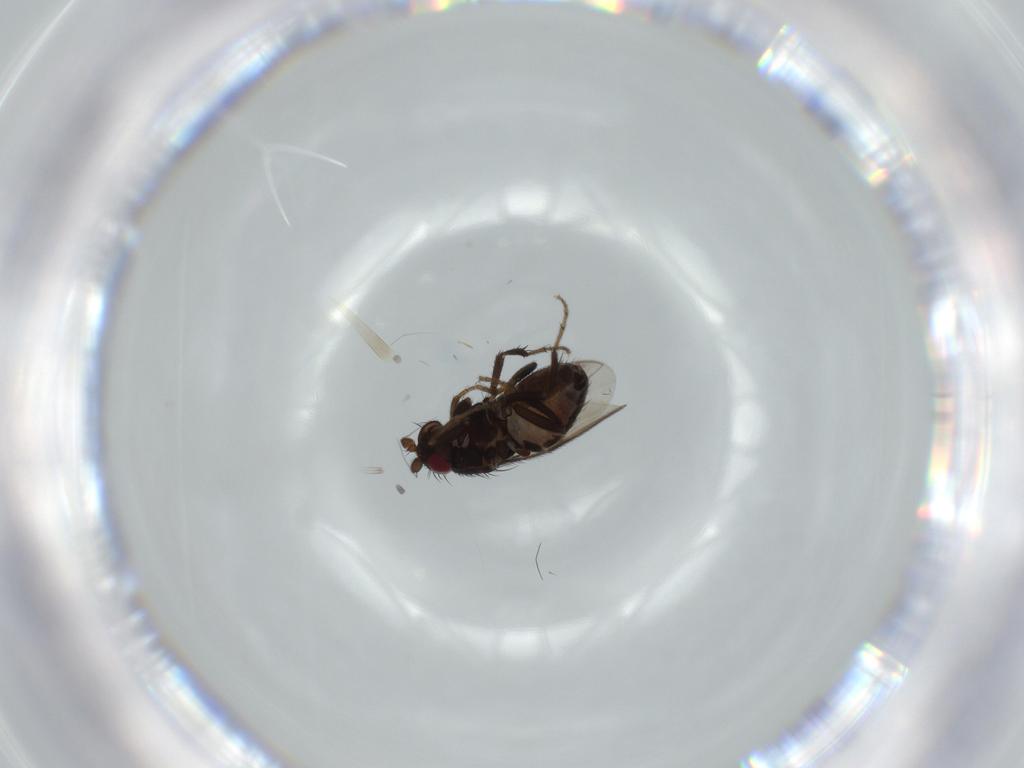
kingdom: Animalia
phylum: Arthropoda
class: Insecta
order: Diptera
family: Sphaeroceridae
